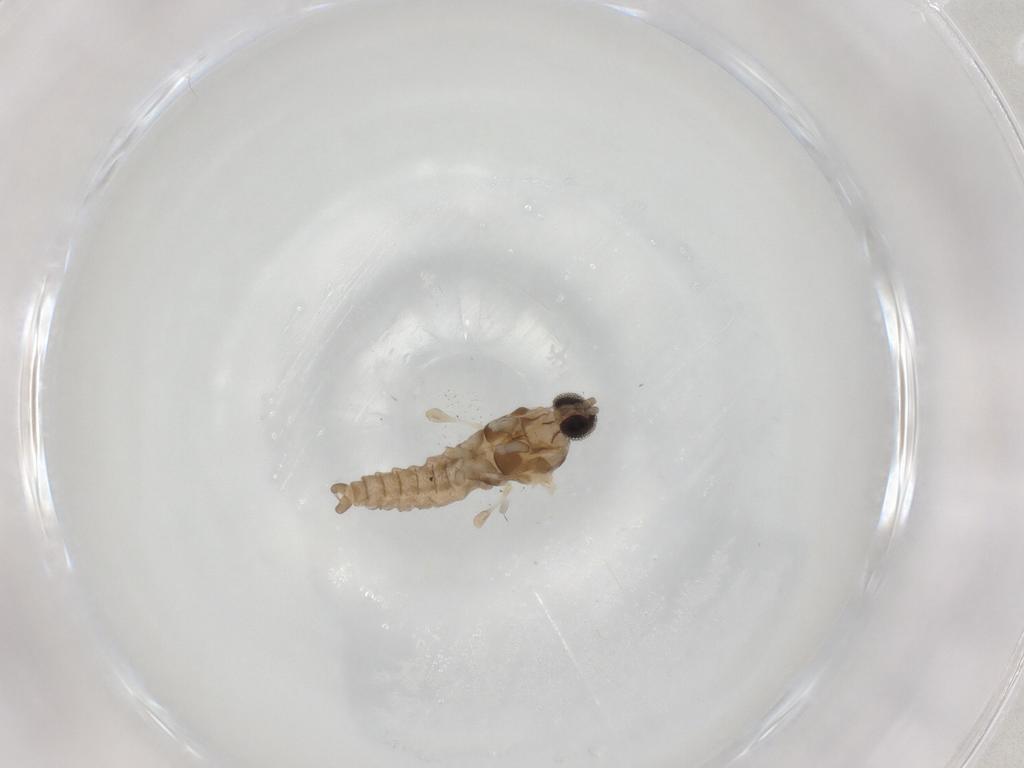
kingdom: Animalia
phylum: Arthropoda
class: Insecta
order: Diptera
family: Cecidomyiidae
